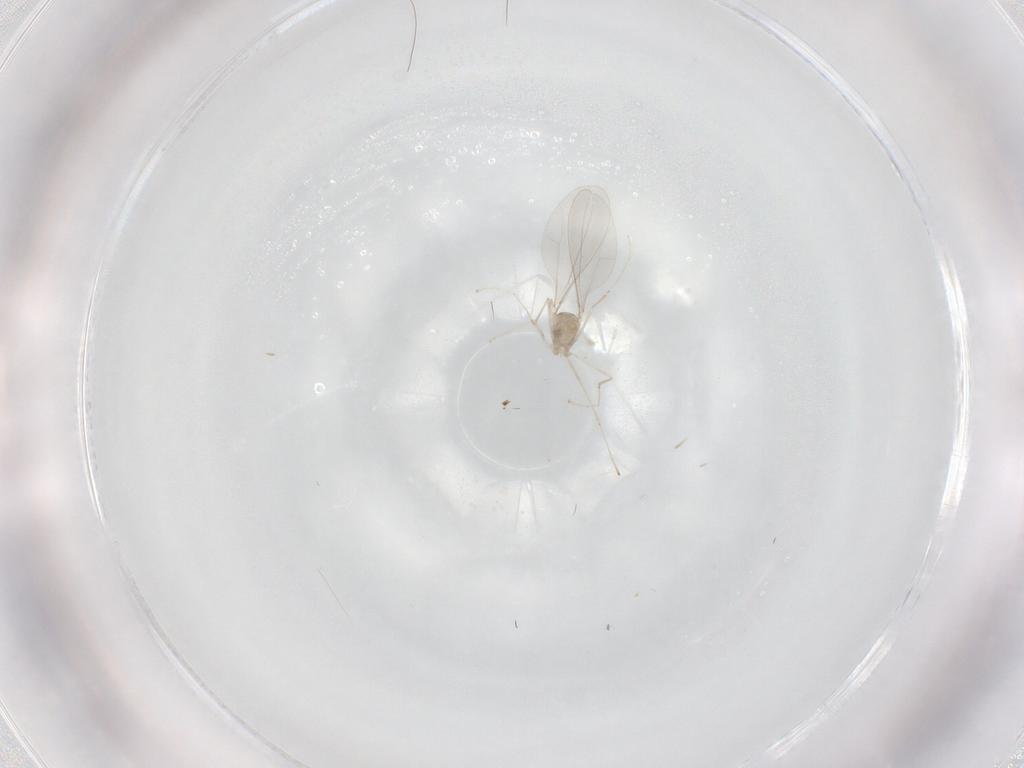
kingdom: Animalia
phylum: Arthropoda
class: Insecta
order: Diptera
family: Cecidomyiidae
